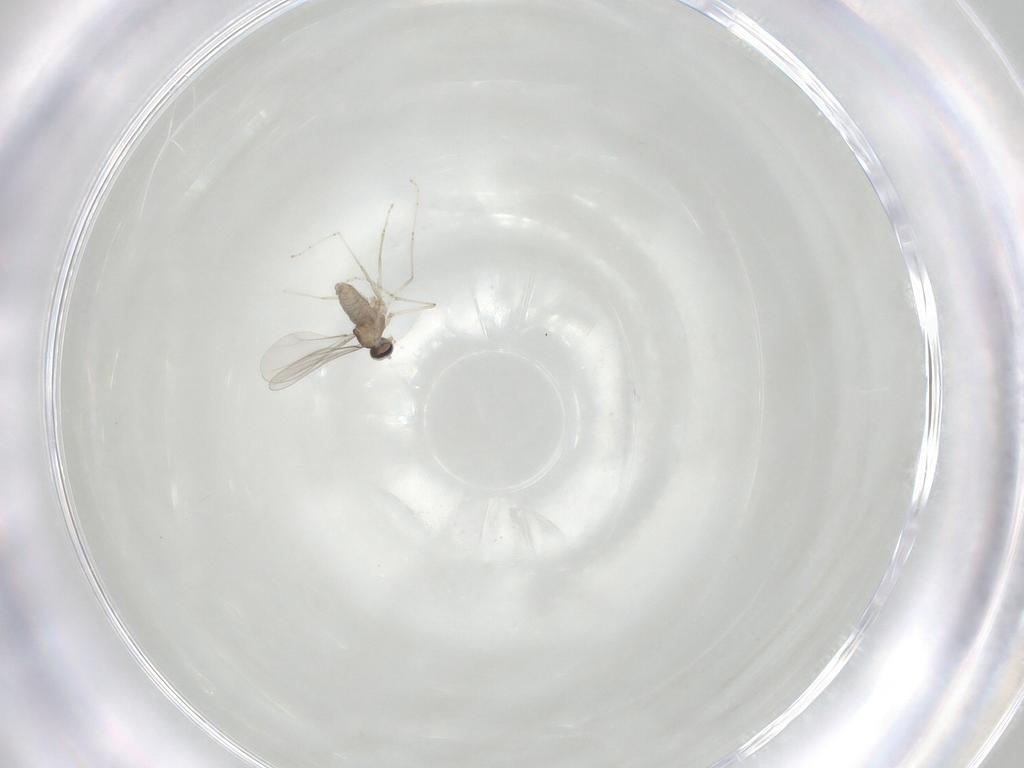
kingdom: Animalia
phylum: Arthropoda
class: Insecta
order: Diptera
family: Cecidomyiidae
